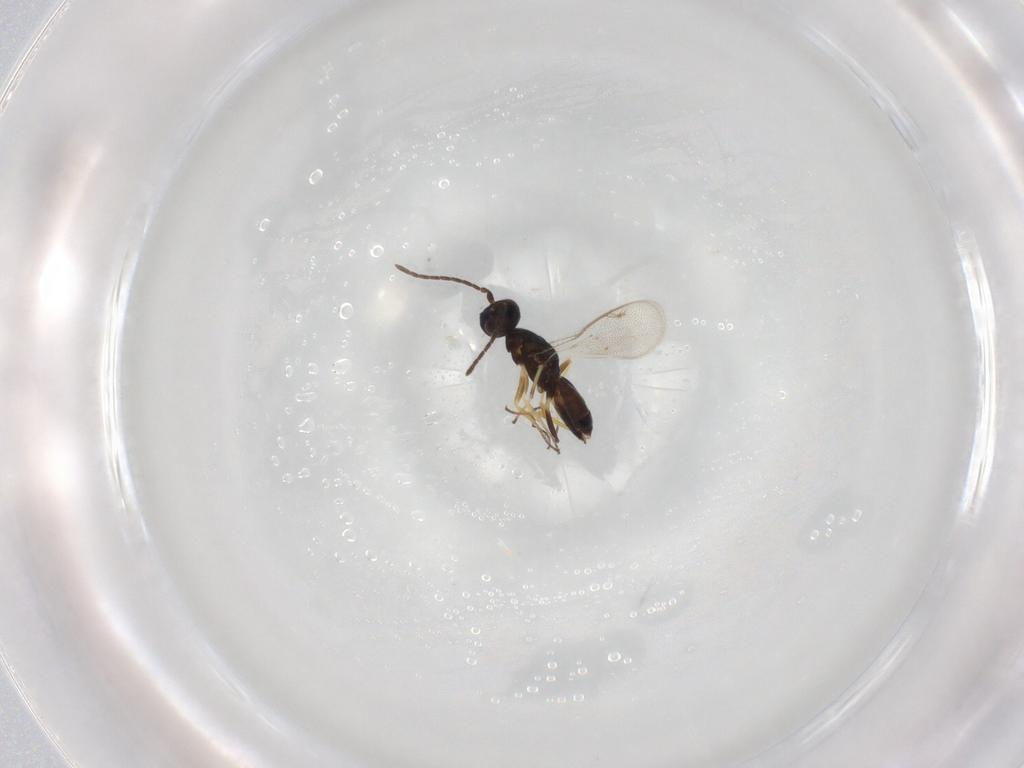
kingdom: Animalia
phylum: Arthropoda
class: Insecta
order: Hymenoptera
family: Eupelmidae
